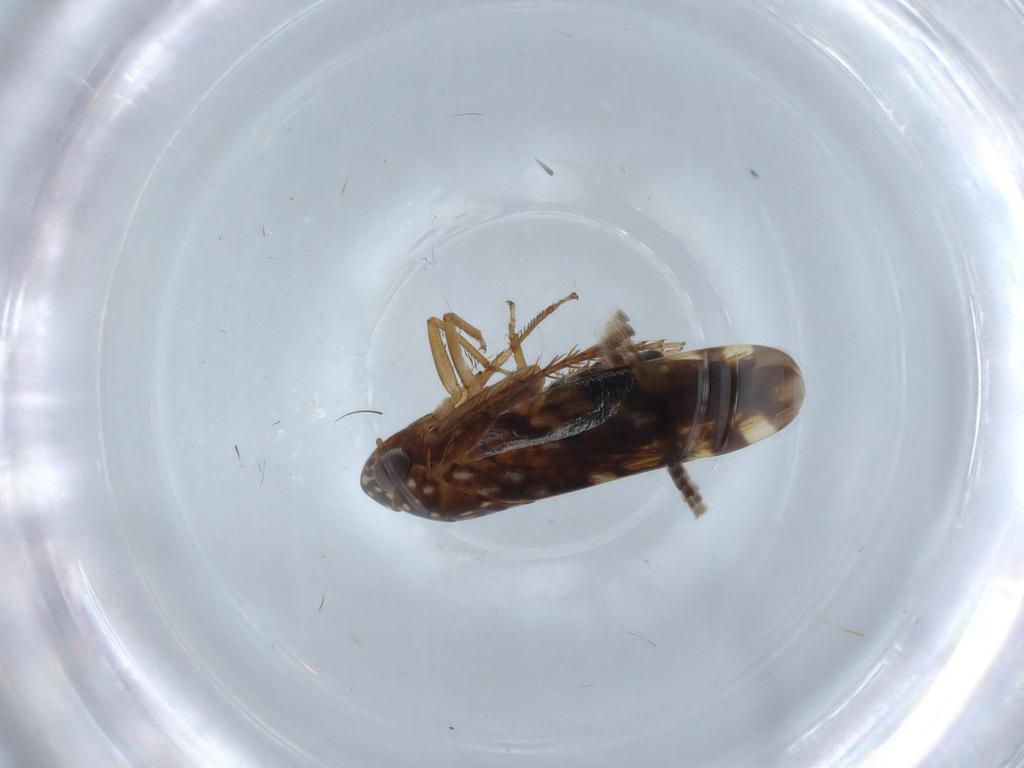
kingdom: Animalia
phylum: Arthropoda
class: Insecta
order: Hemiptera
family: Cicadellidae
